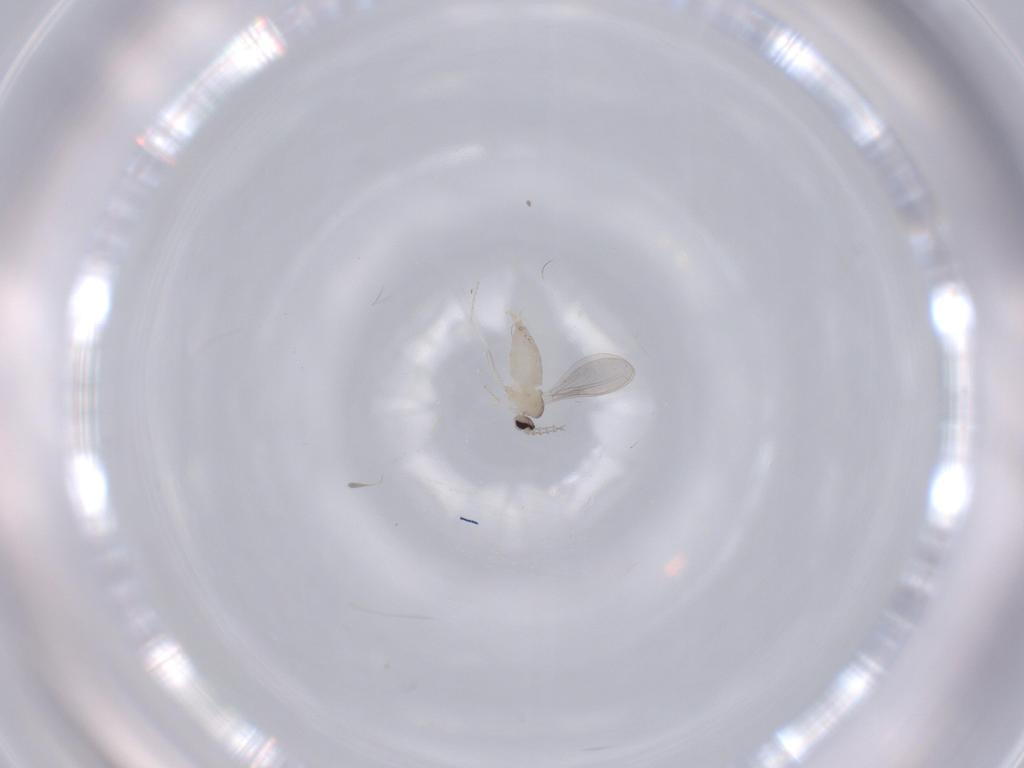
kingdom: Animalia
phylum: Arthropoda
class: Insecta
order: Diptera
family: Cecidomyiidae
